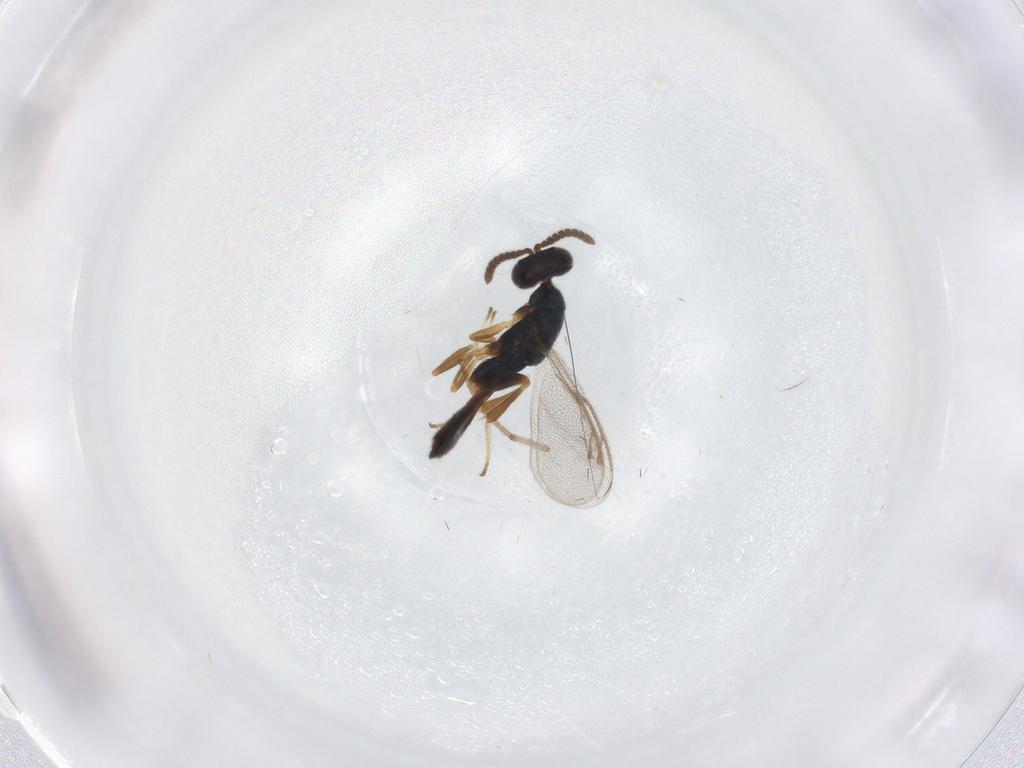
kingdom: Animalia
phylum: Arthropoda
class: Insecta
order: Hymenoptera
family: Cleonyminae
